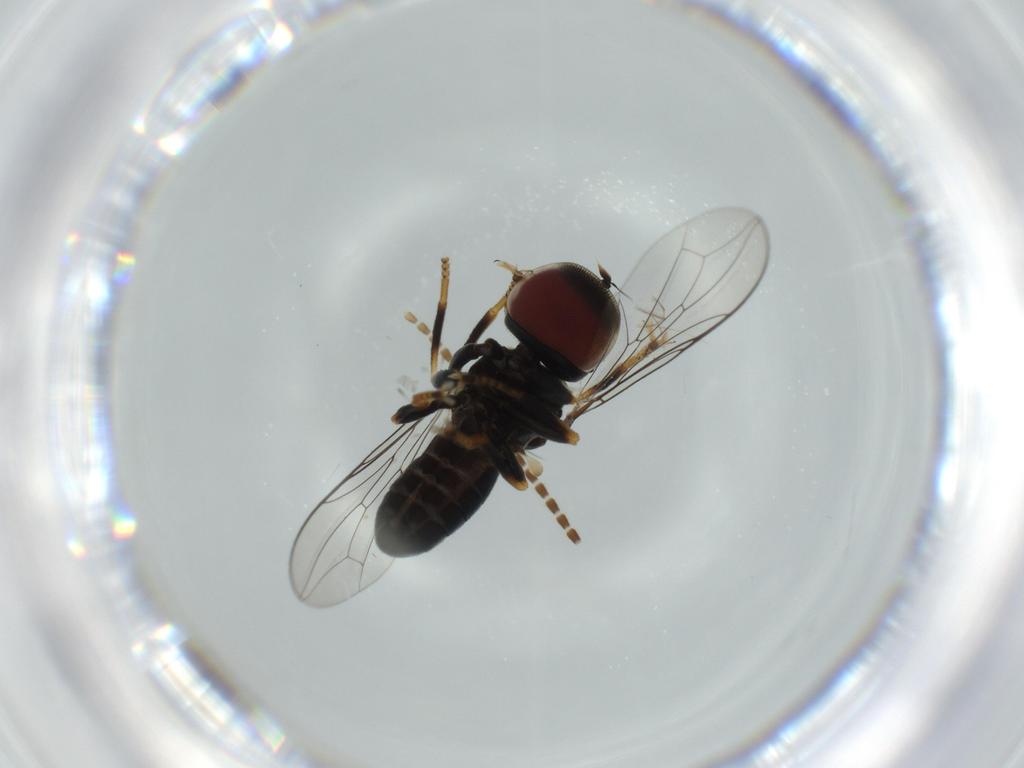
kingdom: Animalia
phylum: Arthropoda
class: Insecta
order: Diptera
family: Pipunculidae
